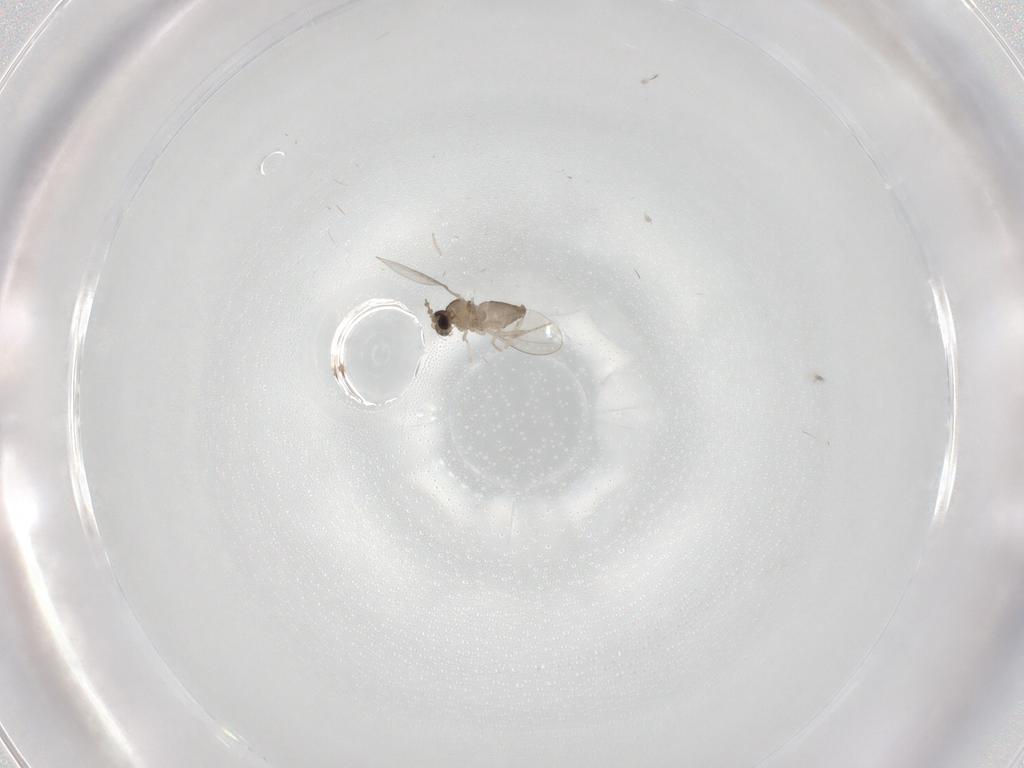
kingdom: Animalia
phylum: Arthropoda
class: Insecta
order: Diptera
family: Cecidomyiidae
